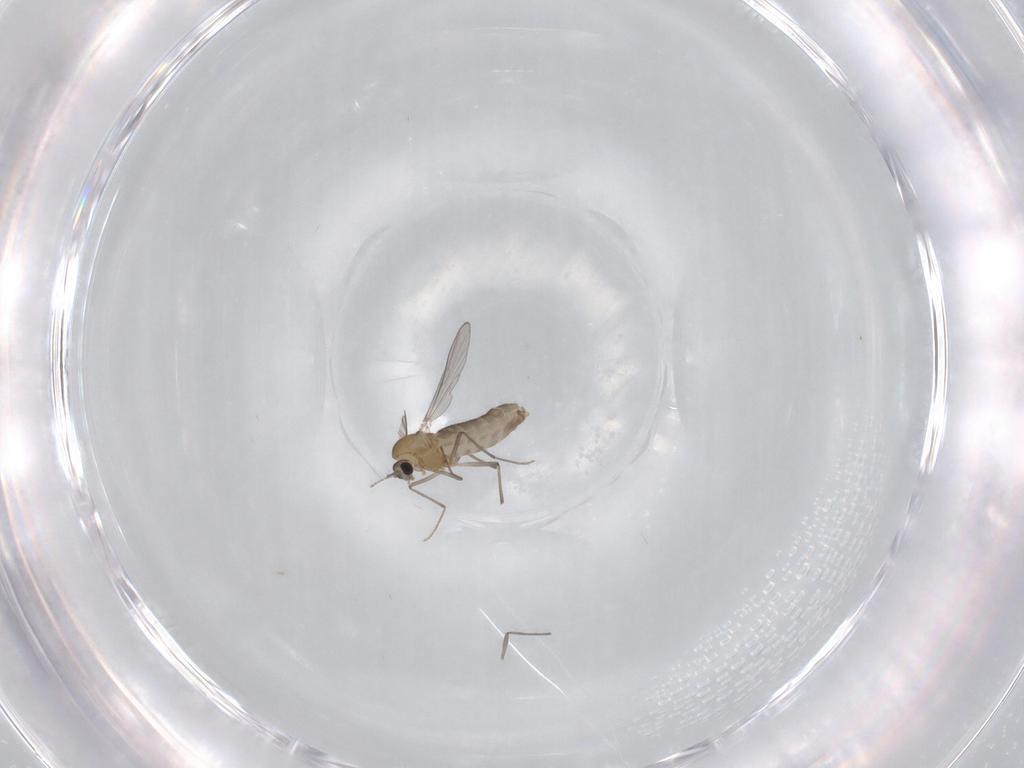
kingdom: Animalia
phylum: Arthropoda
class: Insecta
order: Diptera
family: Chironomidae
